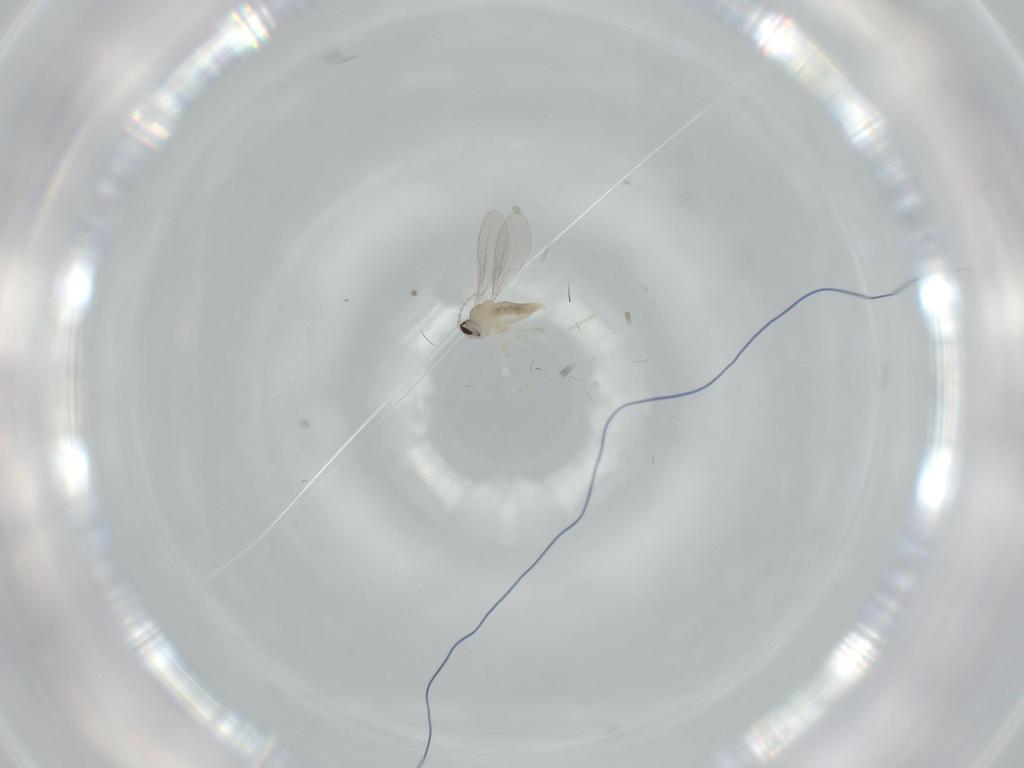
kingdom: Animalia
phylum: Arthropoda
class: Insecta
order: Diptera
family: Cecidomyiidae
